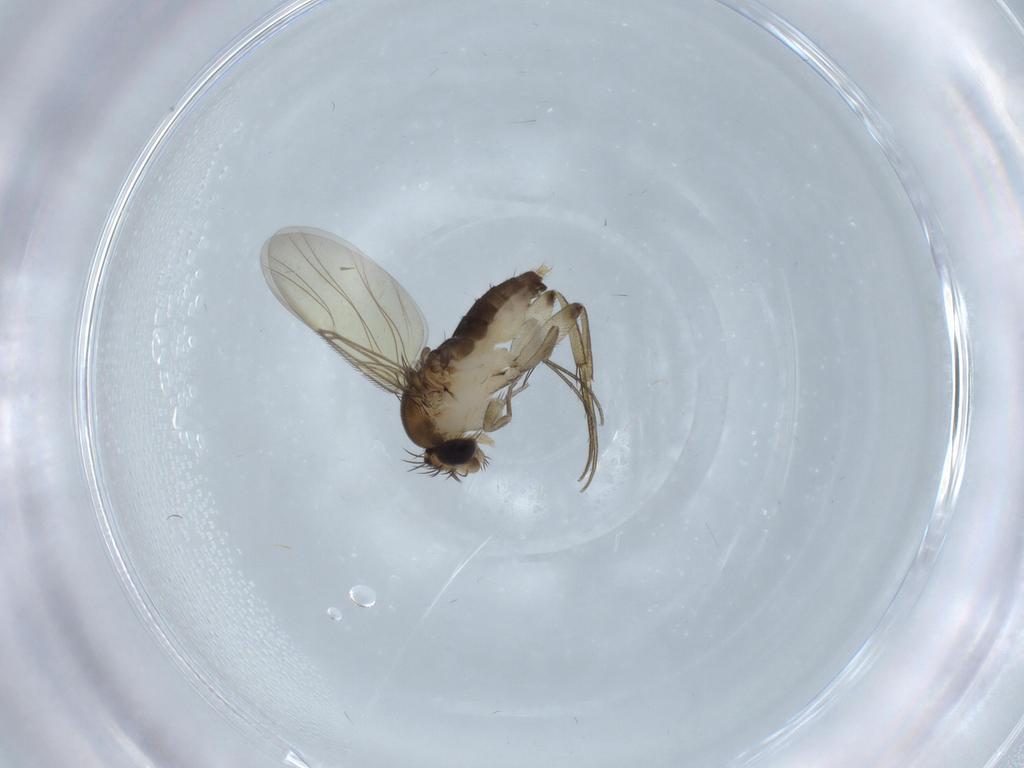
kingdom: Animalia
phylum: Arthropoda
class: Insecta
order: Diptera
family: Phoridae
